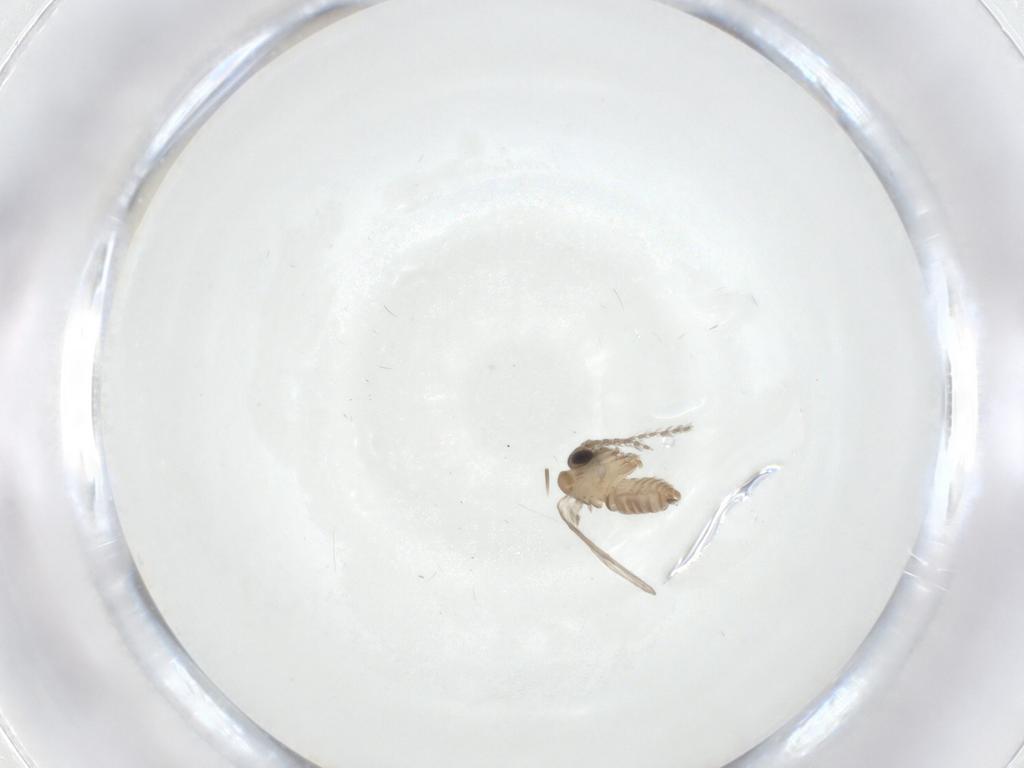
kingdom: Animalia
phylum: Arthropoda
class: Insecta
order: Diptera
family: Psychodidae
